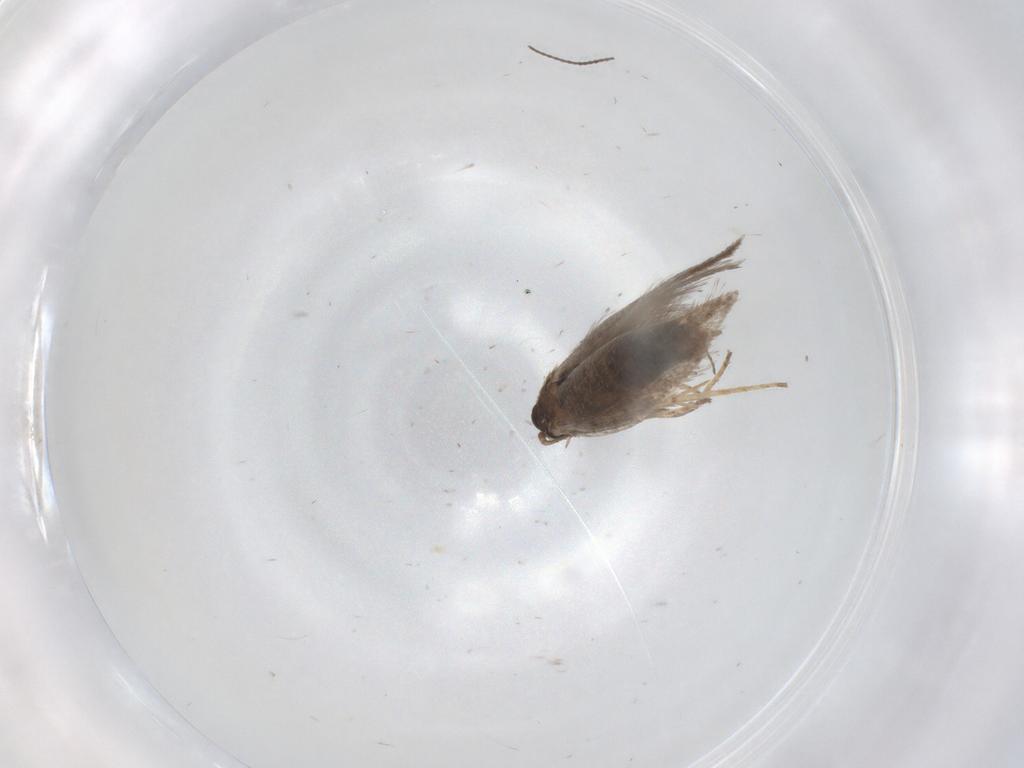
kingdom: Animalia
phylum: Arthropoda
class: Insecta
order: Lepidoptera
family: Nepticulidae
